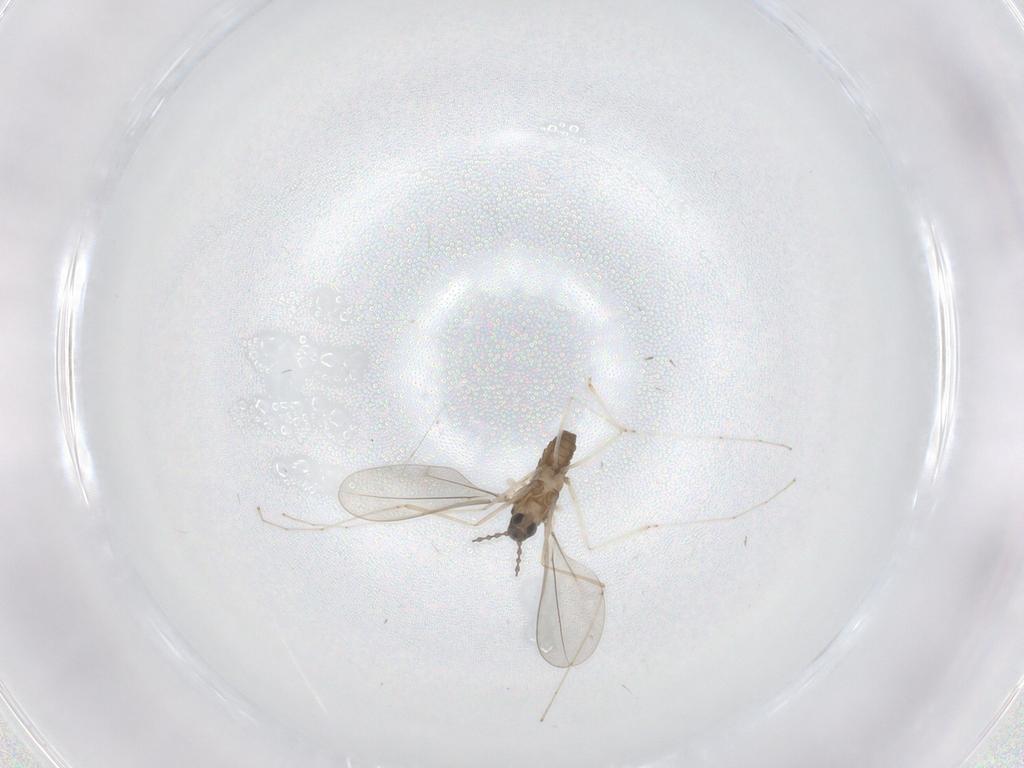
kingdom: Animalia
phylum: Arthropoda
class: Insecta
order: Diptera
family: Cecidomyiidae
